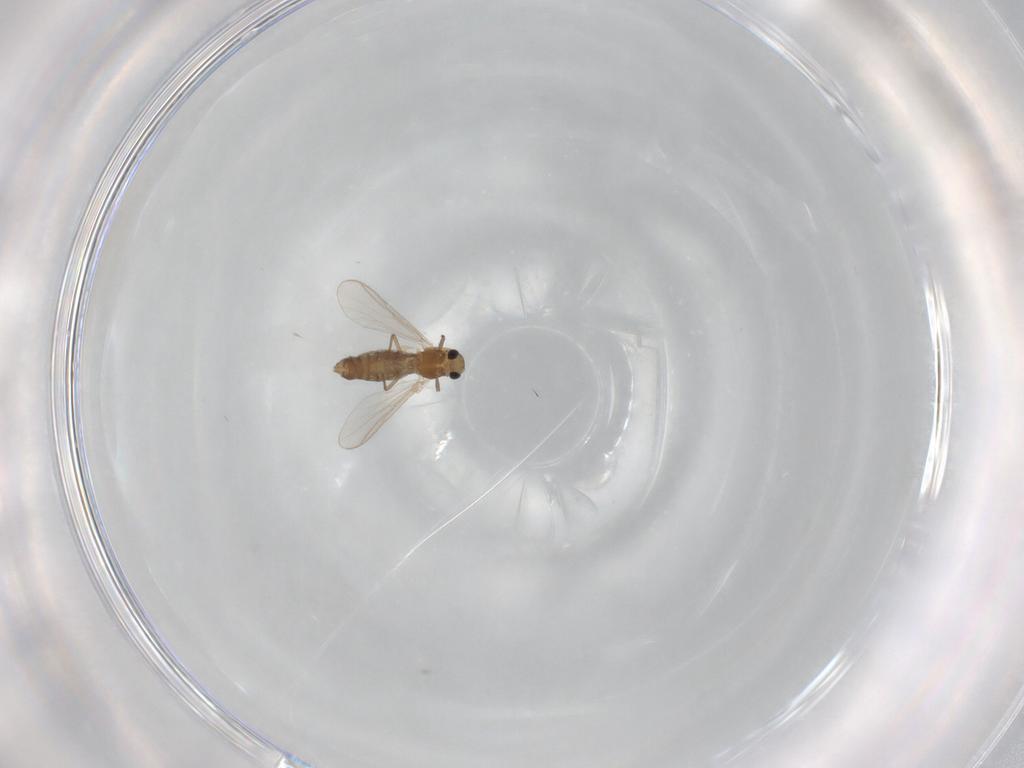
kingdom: Animalia
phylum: Arthropoda
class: Insecta
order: Diptera
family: Chironomidae
